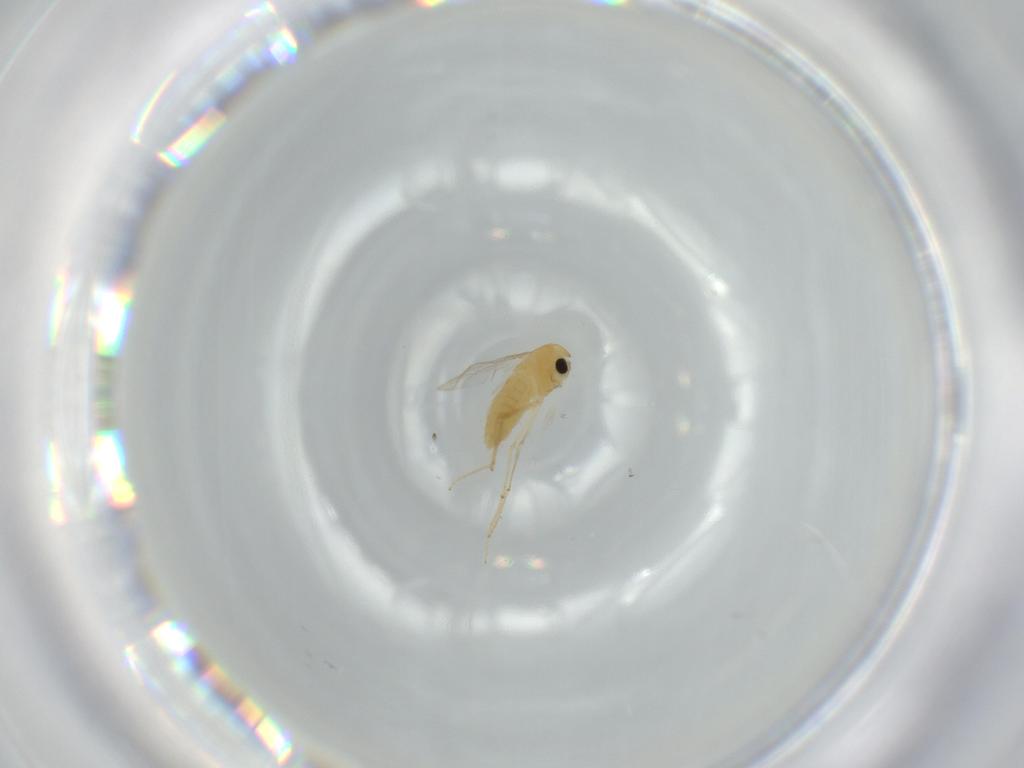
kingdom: Animalia
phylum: Arthropoda
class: Insecta
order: Diptera
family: Chironomidae
